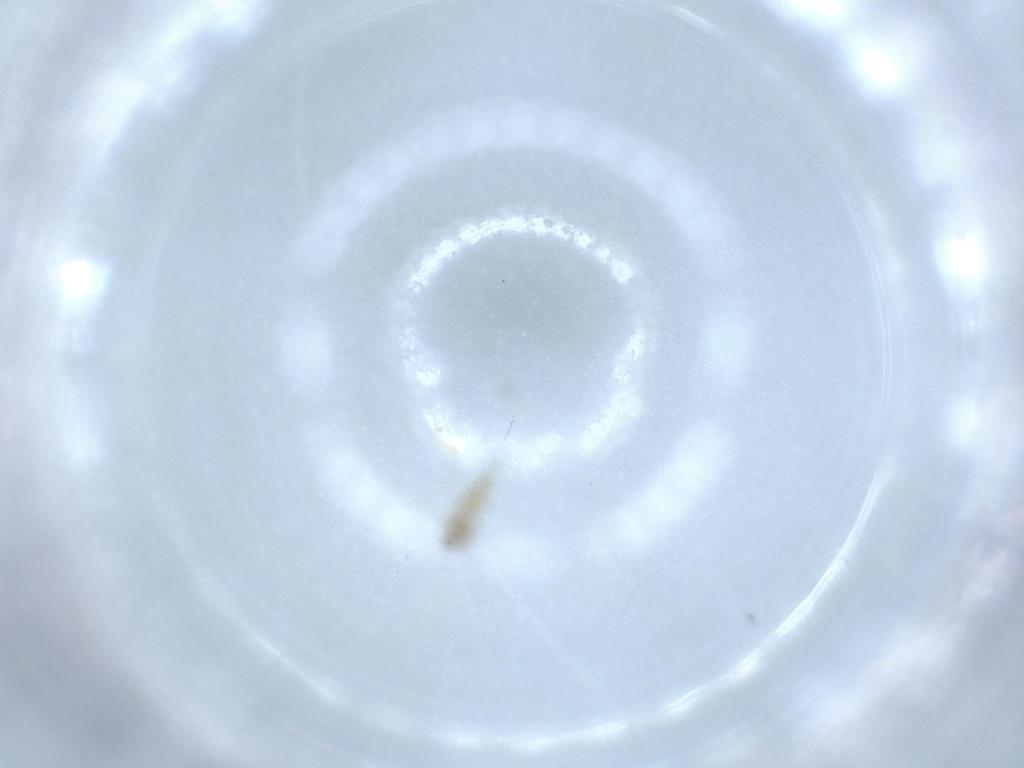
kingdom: Animalia
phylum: Arthropoda
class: Insecta
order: Diptera
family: Cecidomyiidae
